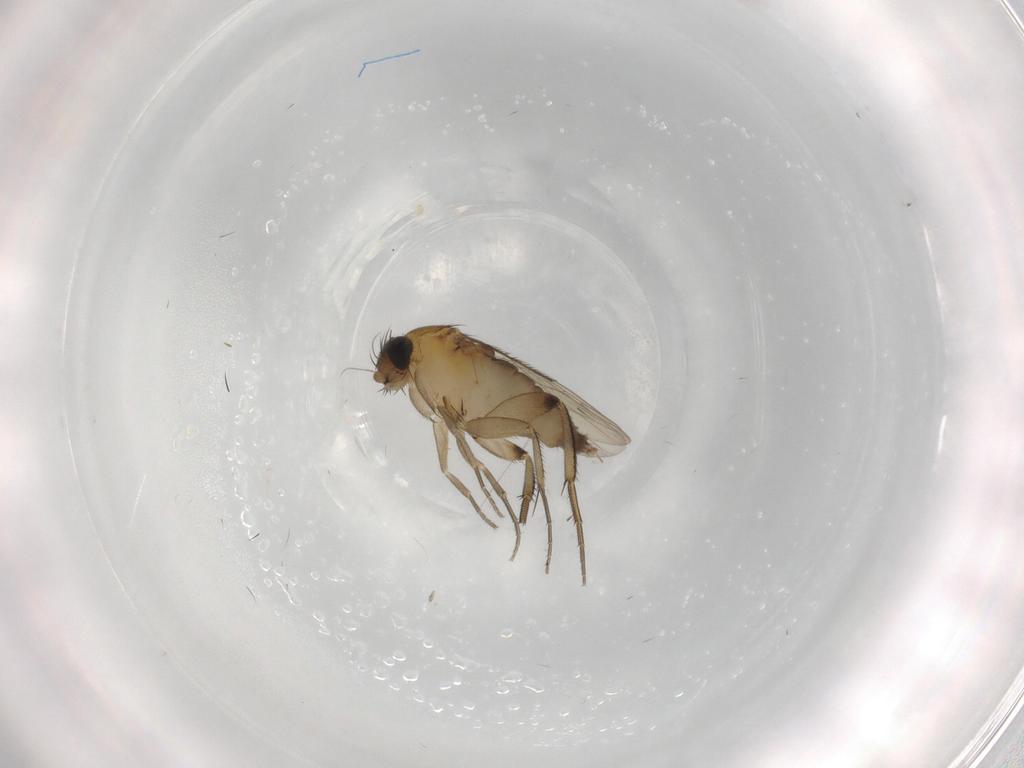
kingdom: Animalia
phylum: Arthropoda
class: Insecta
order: Diptera
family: Phoridae
